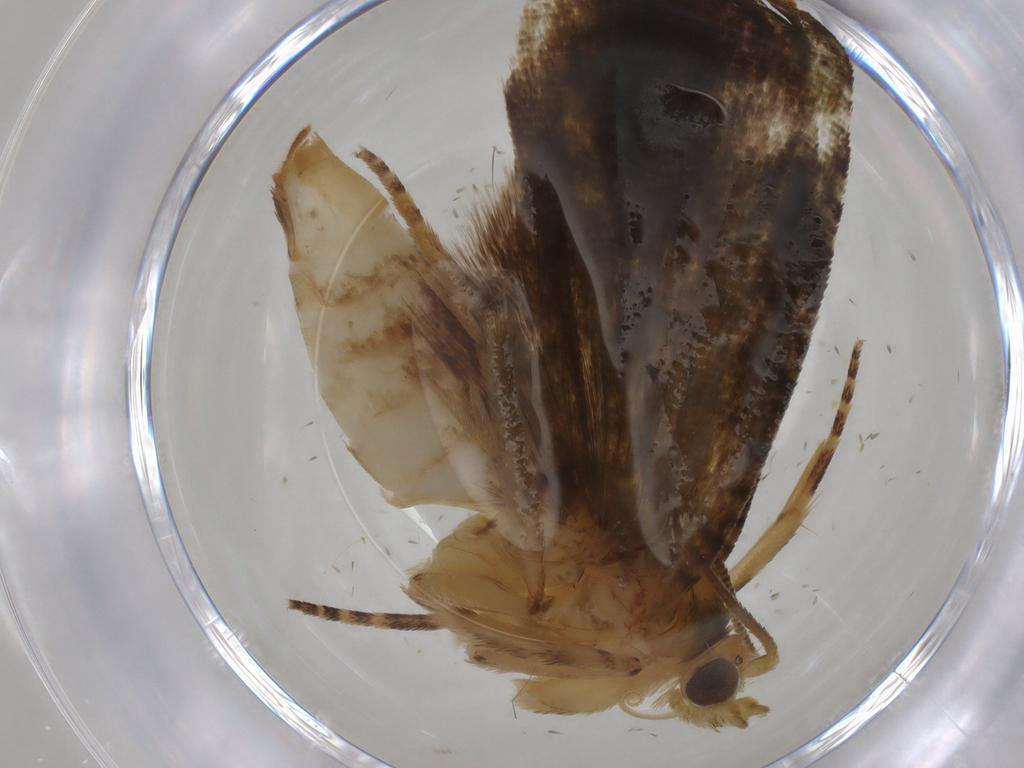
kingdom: Animalia
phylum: Arthropoda
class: Insecta
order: Lepidoptera
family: Tortricidae
